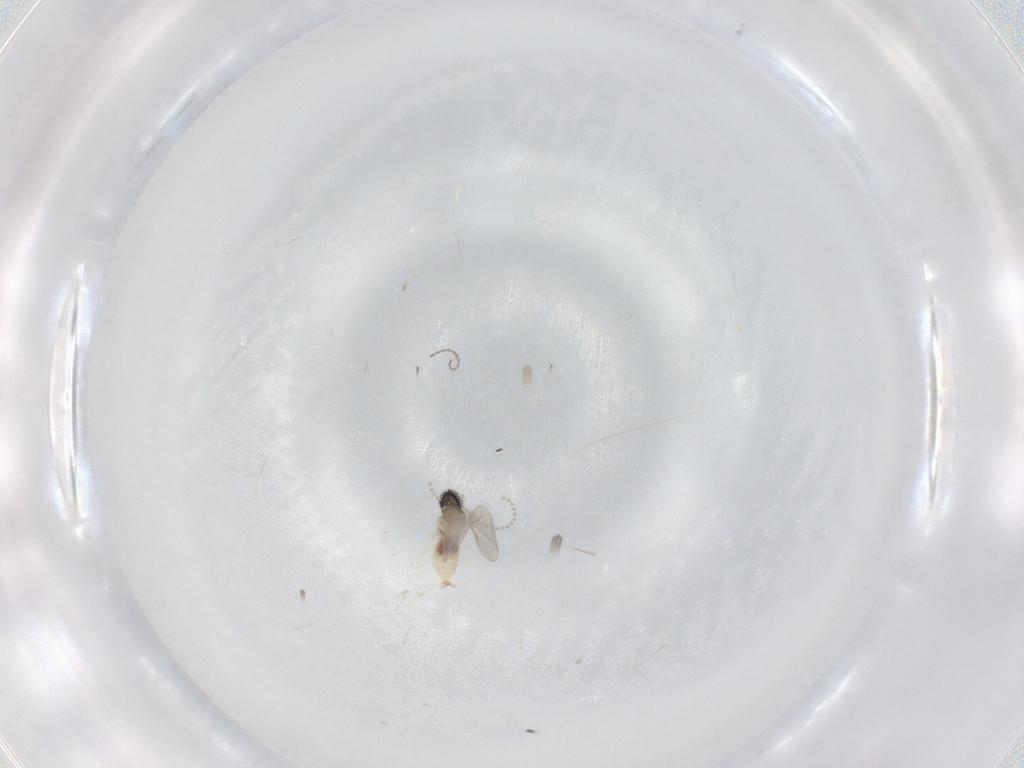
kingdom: Animalia
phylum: Arthropoda
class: Insecta
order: Diptera
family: Cecidomyiidae
